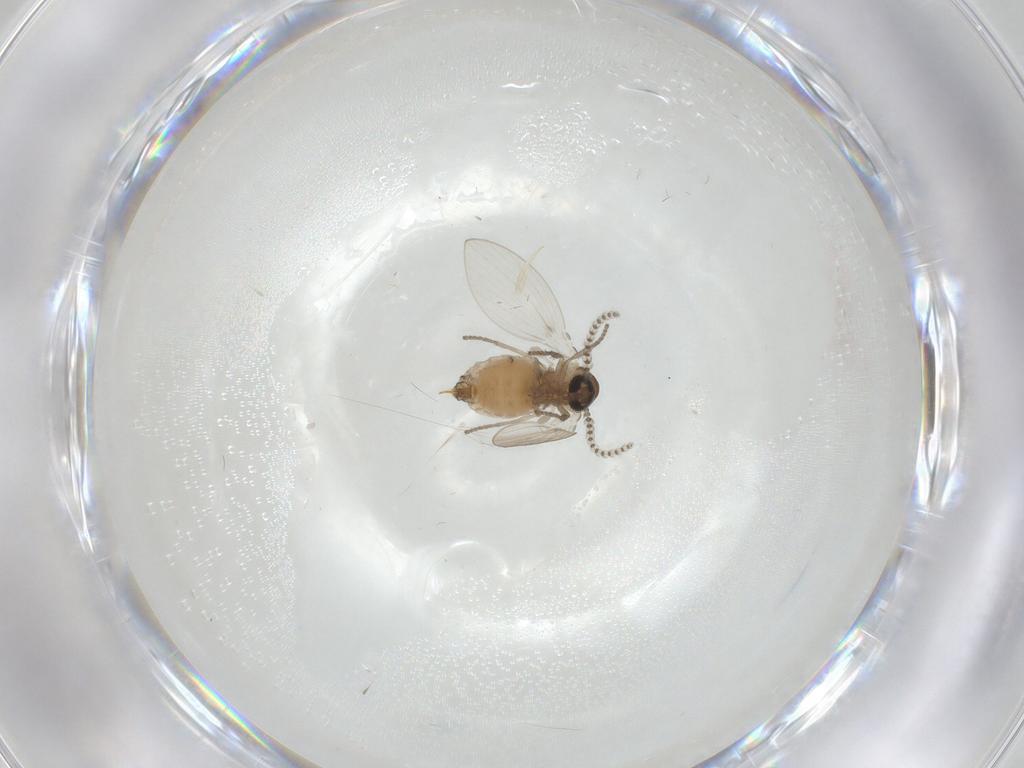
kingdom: Animalia
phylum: Arthropoda
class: Insecta
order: Diptera
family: Psychodidae
